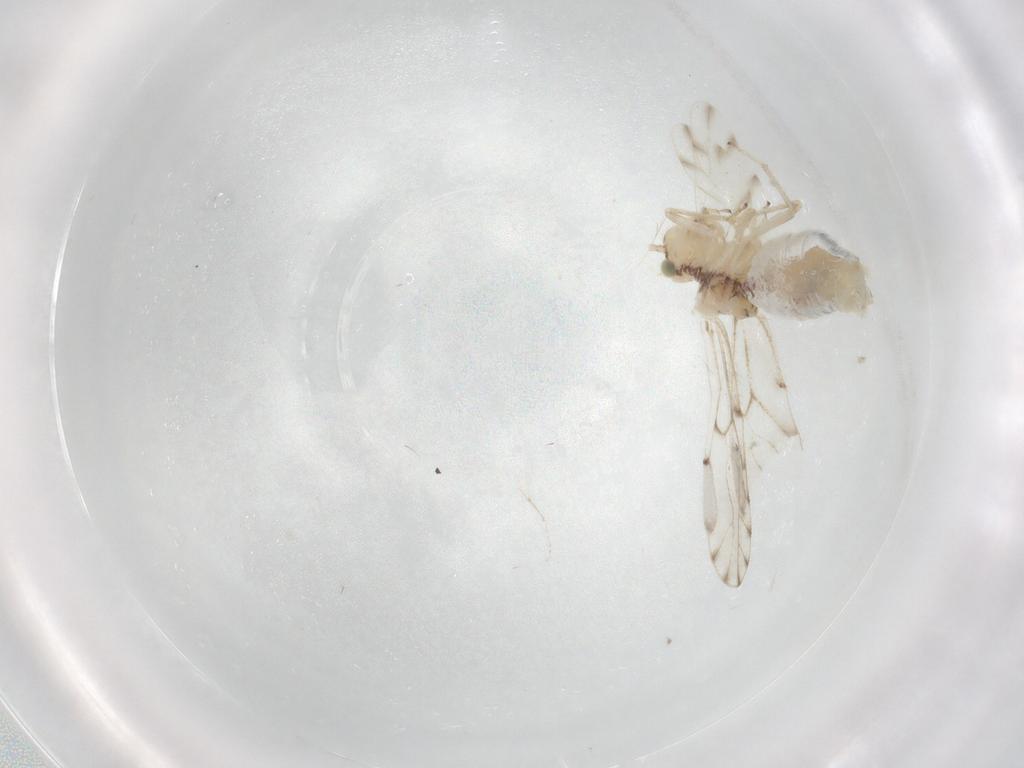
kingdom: Animalia
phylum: Arthropoda
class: Insecta
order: Psocodea
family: Ectopsocidae
